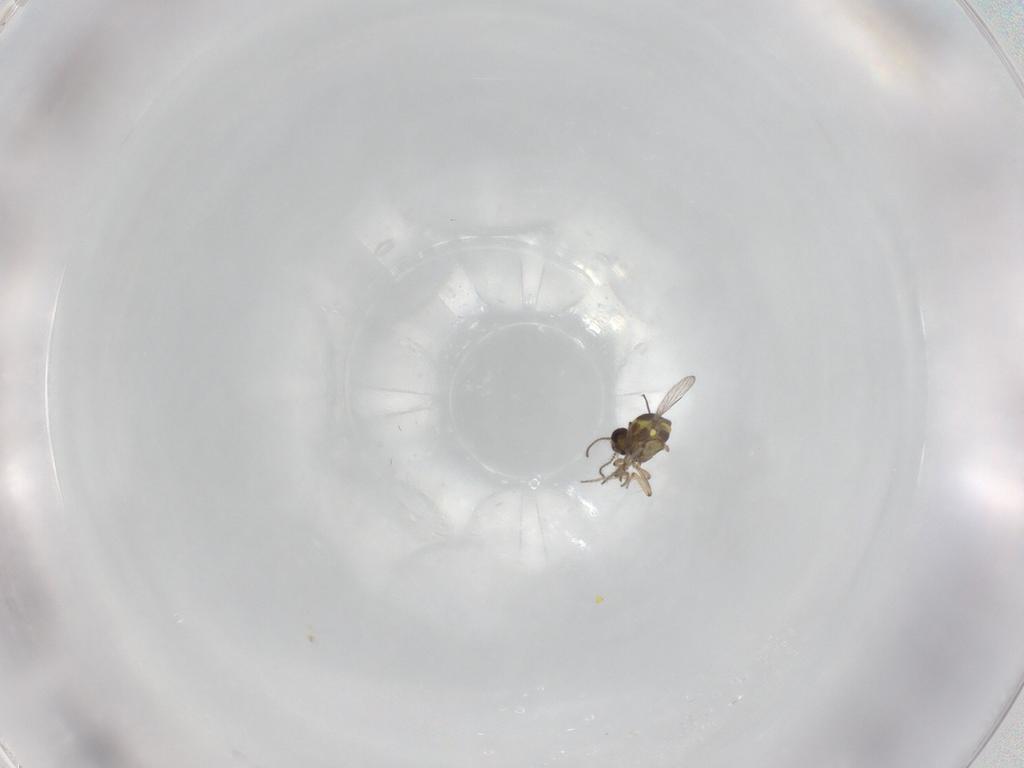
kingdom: Animalia
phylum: Arthropoda
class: Insecta
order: Diptera
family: Ceratopogonidae
